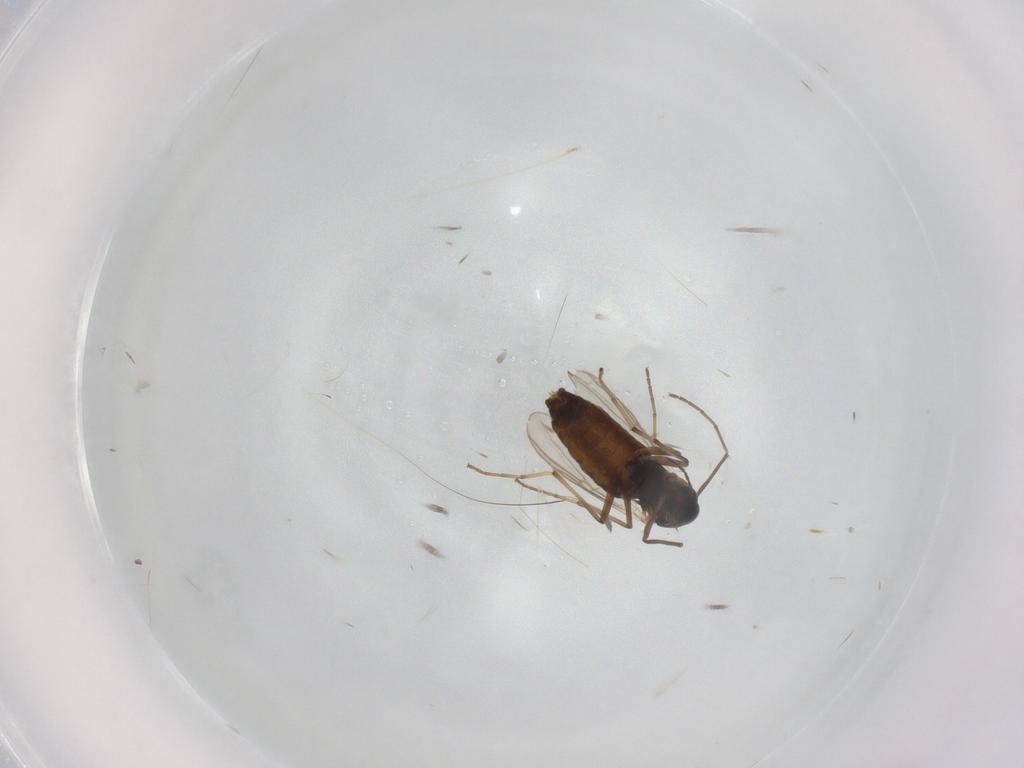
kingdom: Animalia
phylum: Arthropoda
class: Insecta
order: Diptera
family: Chironomidae
